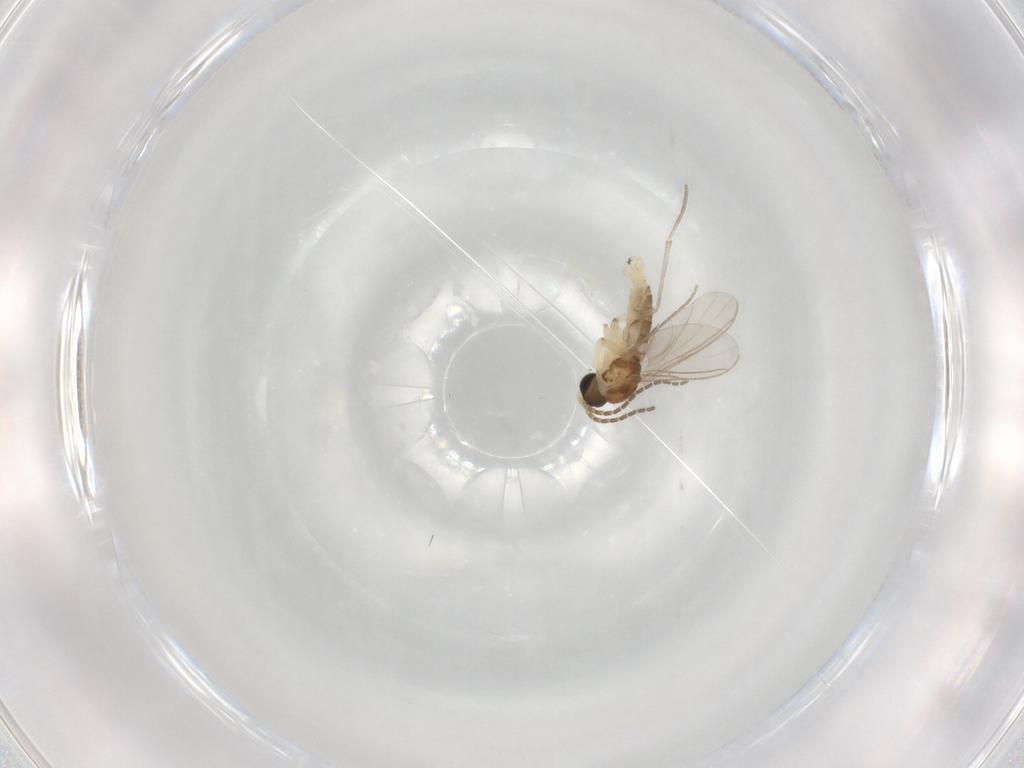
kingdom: Animalia
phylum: Arthropoda
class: Insecta
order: Diptera
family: Sciaridae
